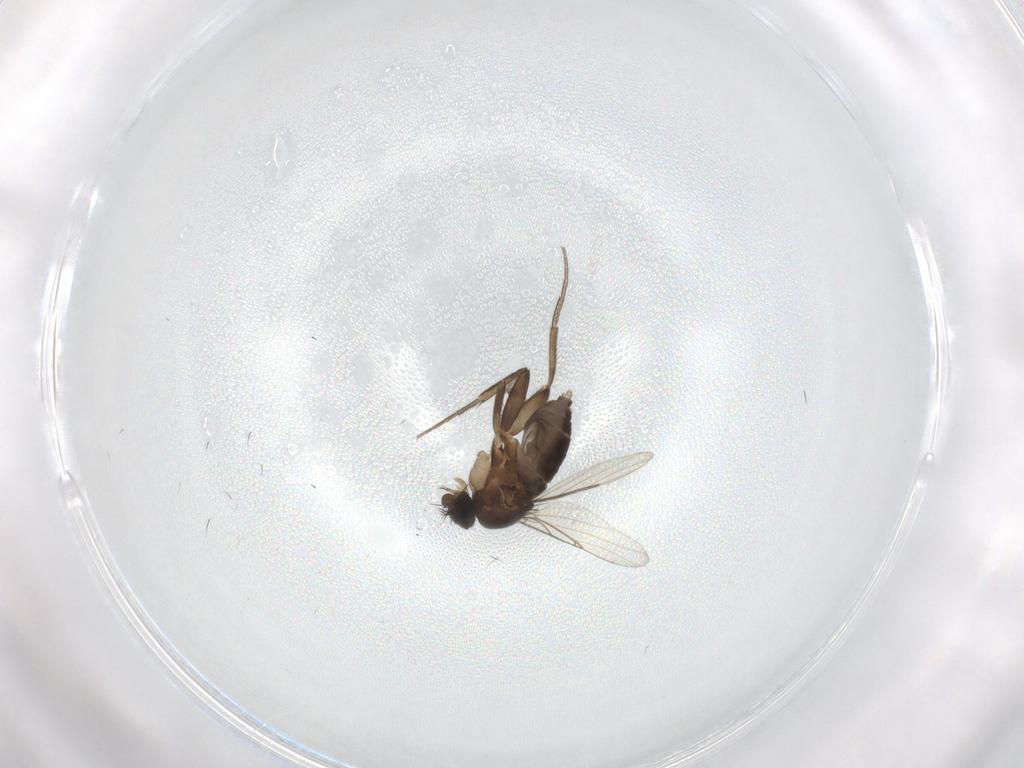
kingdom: Animalia
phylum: Arthropoda
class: Insecta
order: Diptera
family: Phoridae
